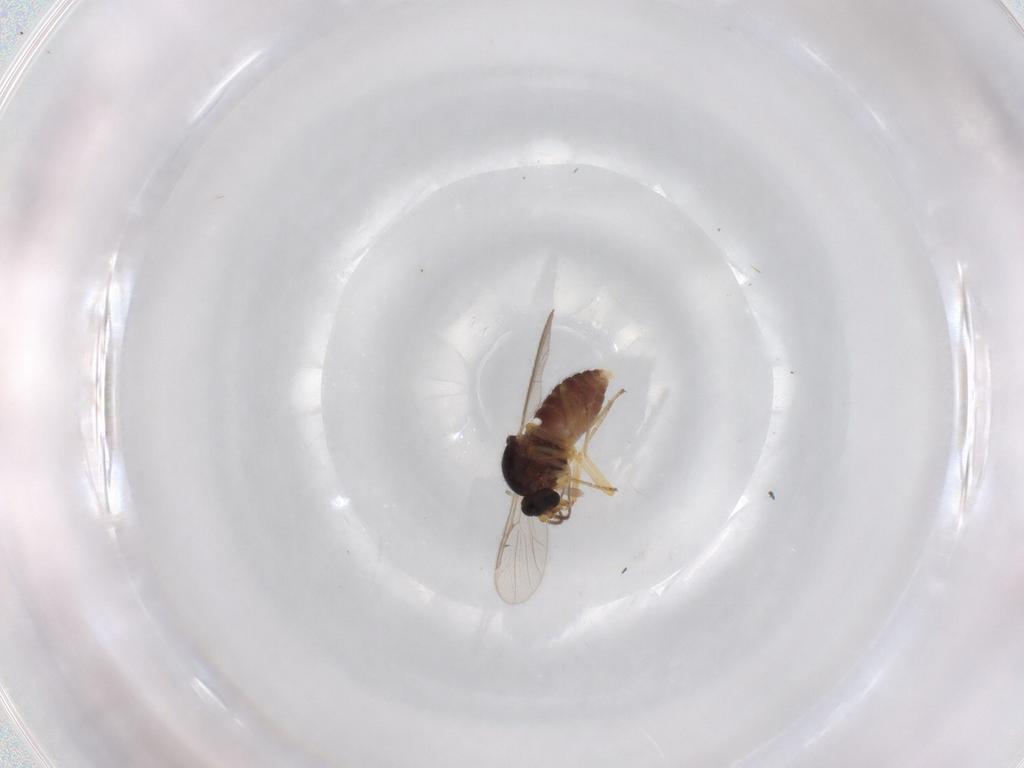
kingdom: Animalia
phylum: Arthropoda
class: Insecta
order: Diptera
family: Ceratopogonidae
